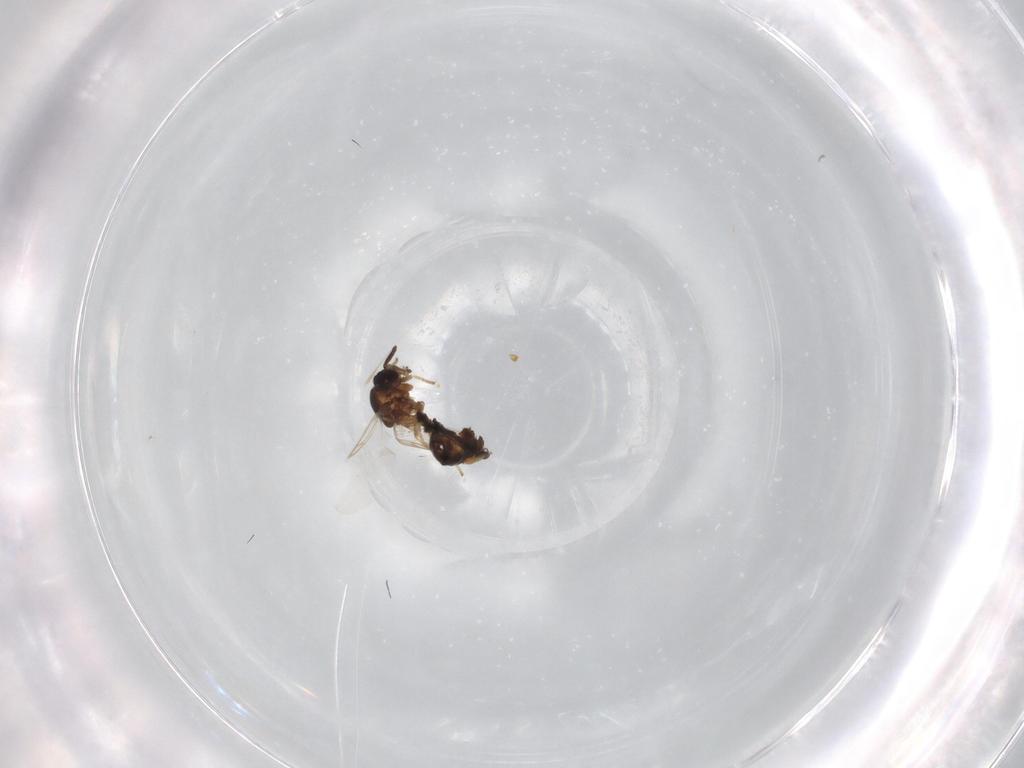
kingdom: Animalia
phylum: Arthropoda
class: Insecta
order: Diptera
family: Scatopsidae
